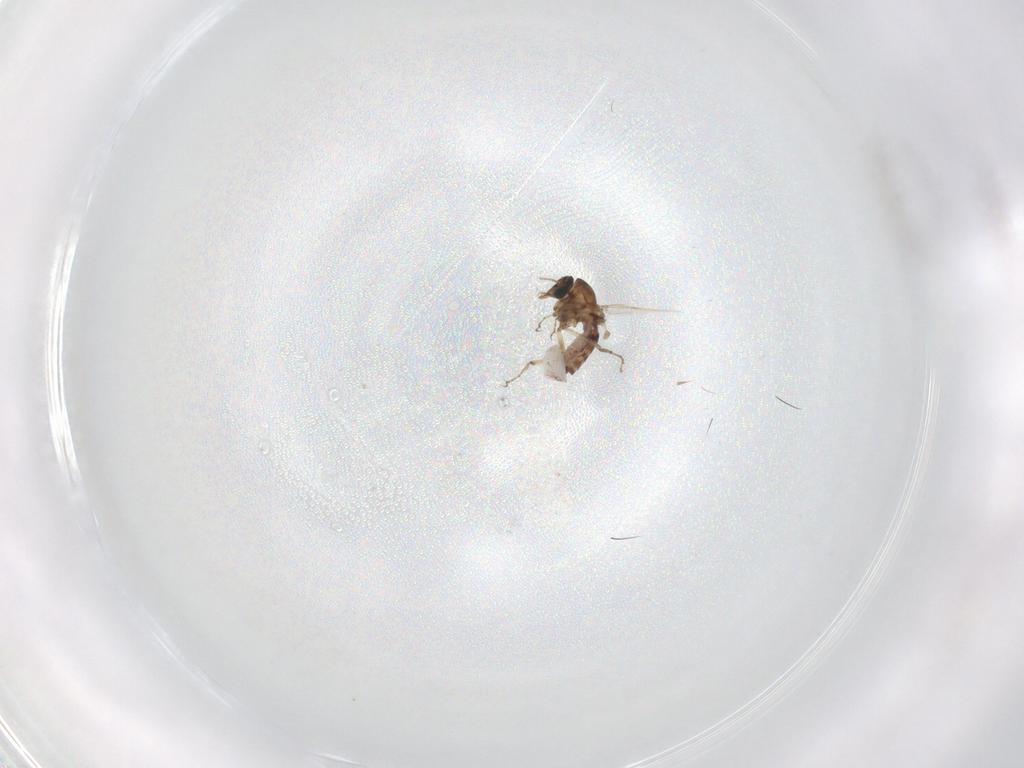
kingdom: Animalia
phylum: Arthropoda
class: Insecta
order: Diptera
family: Ceratopogonidae
